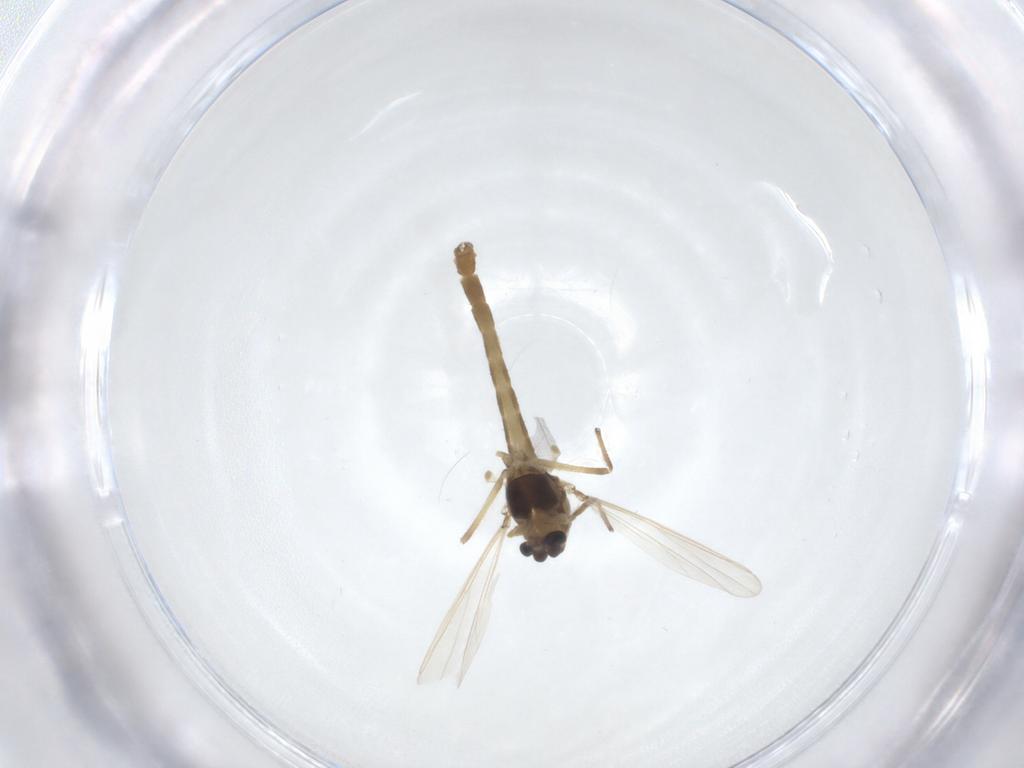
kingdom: Animalia
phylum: Arthropoda
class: Insecta
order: Diptera
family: Chironomidae
